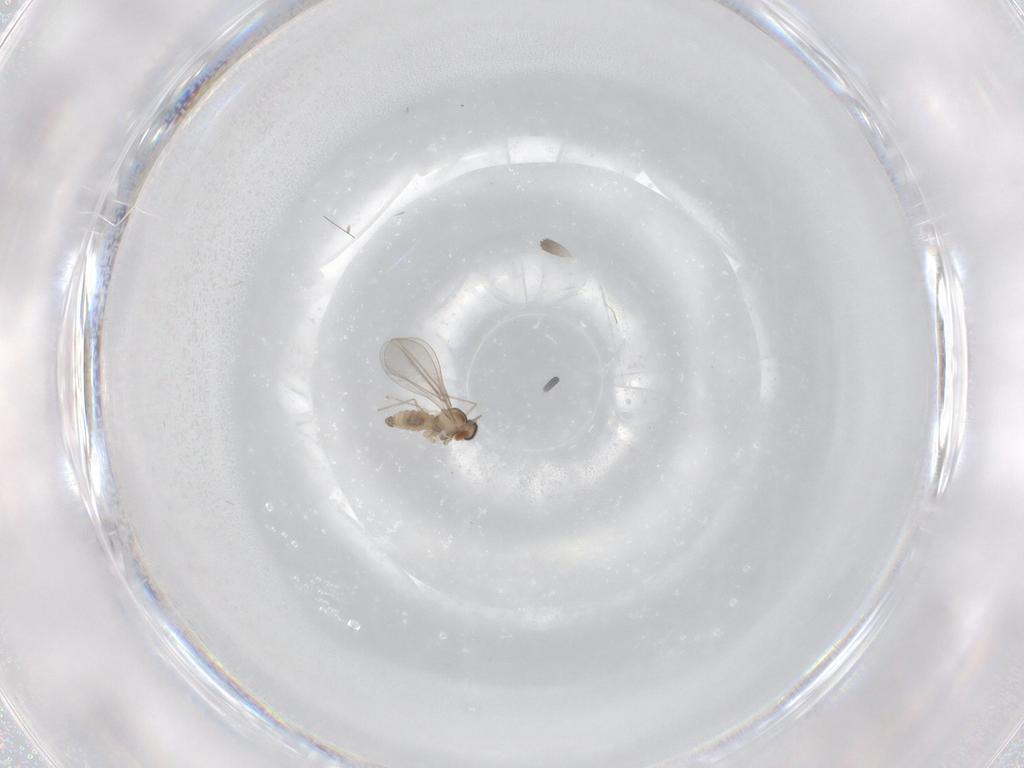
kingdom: Animalia
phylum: Arthropoda
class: Insecta
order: Diptera
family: Cecidomyiidae
